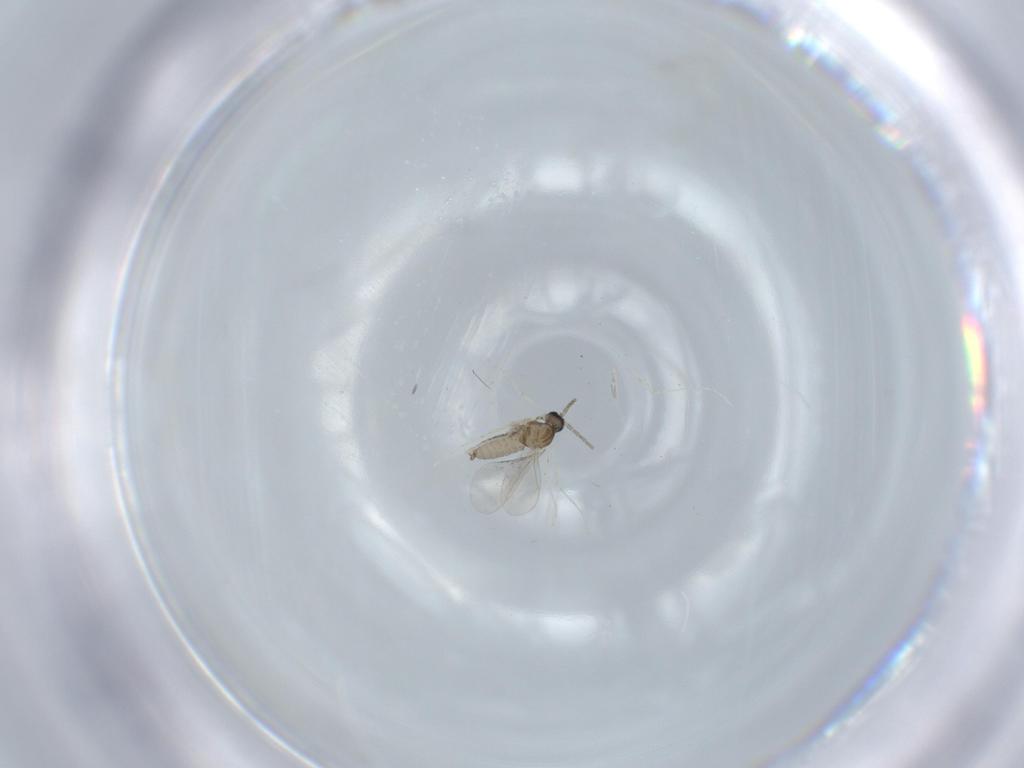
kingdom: Animalia
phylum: Arthropoda
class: Insecta
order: Diptera
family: Cecidomyiidae
